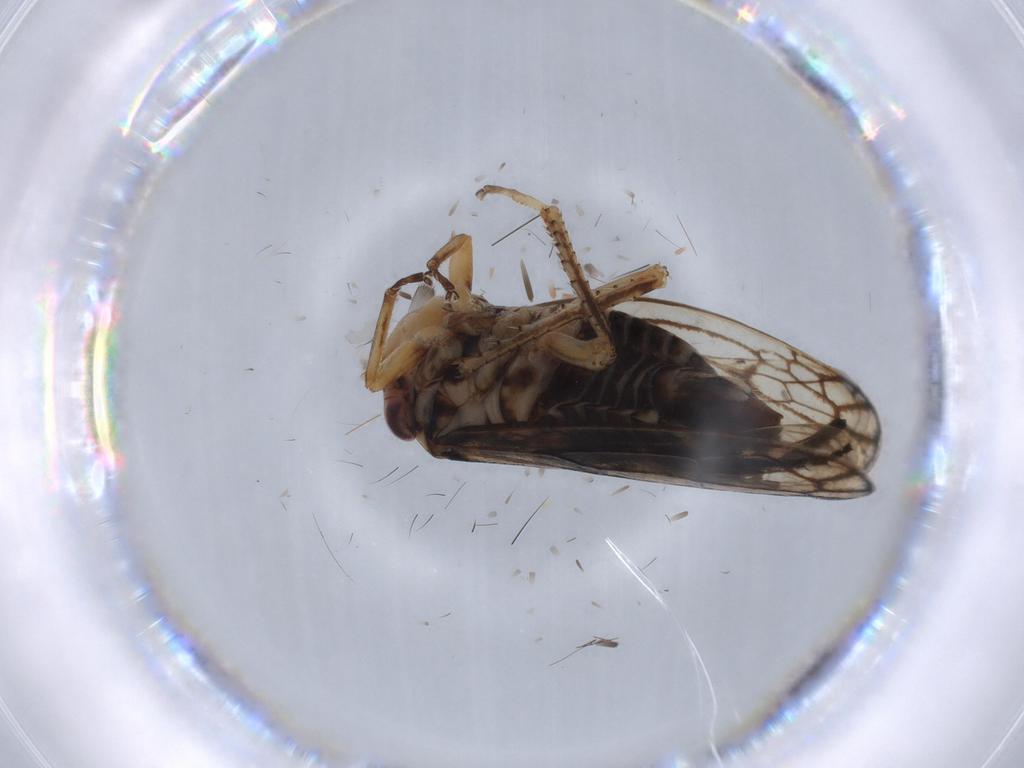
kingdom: Animalia
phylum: Arthropoda
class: Insecta
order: Hemiptera
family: Cicadellidae
